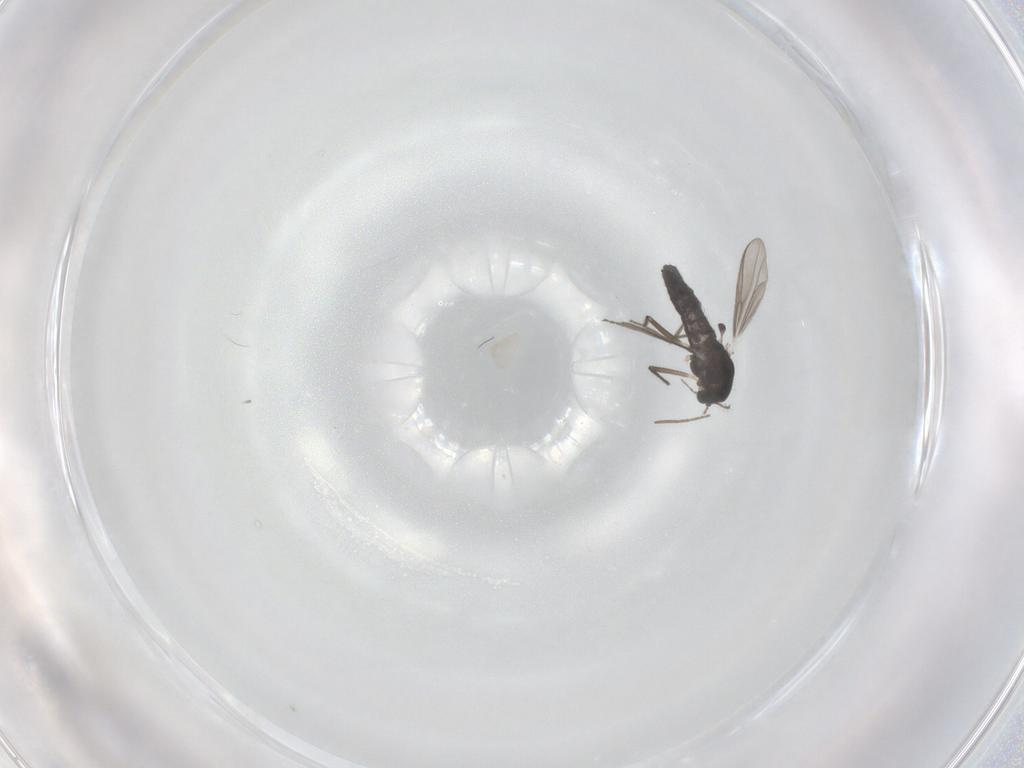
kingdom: Animalia
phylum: Arthropoda
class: Insecta
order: Diptera
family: Chironomidae
